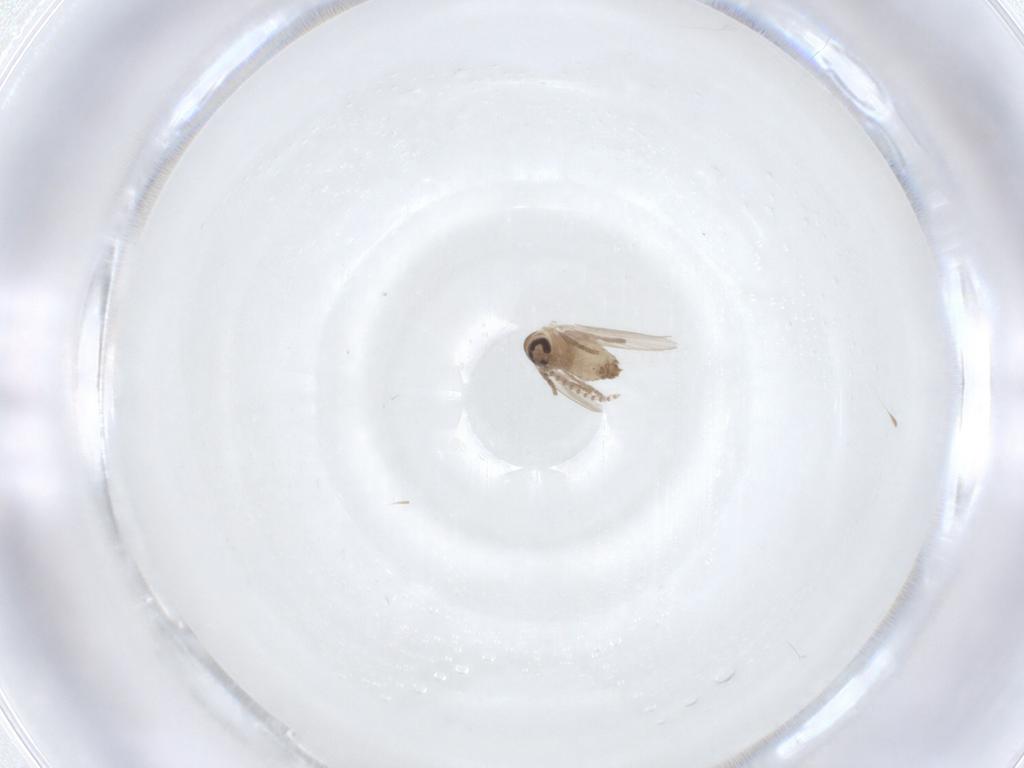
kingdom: Animalia
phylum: Arthropoda
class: Insecta
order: Diptera
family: Psychodidae
